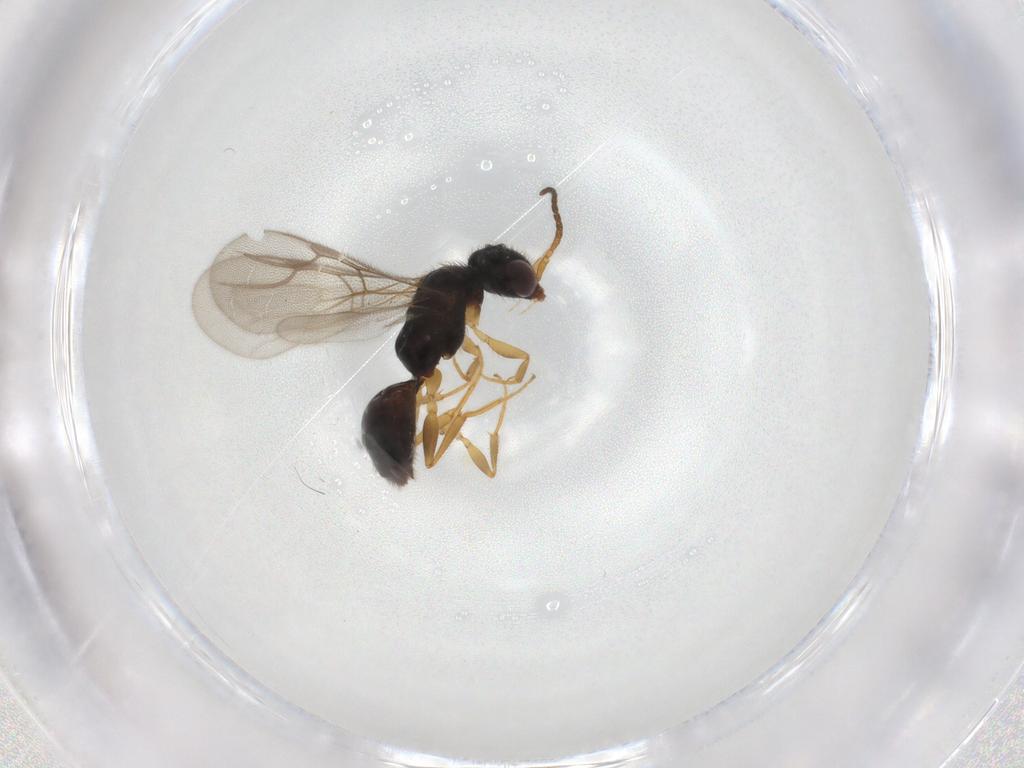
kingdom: Animalia
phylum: Arthropoda
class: Insecta
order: Hymenoptera
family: Bethylidae
